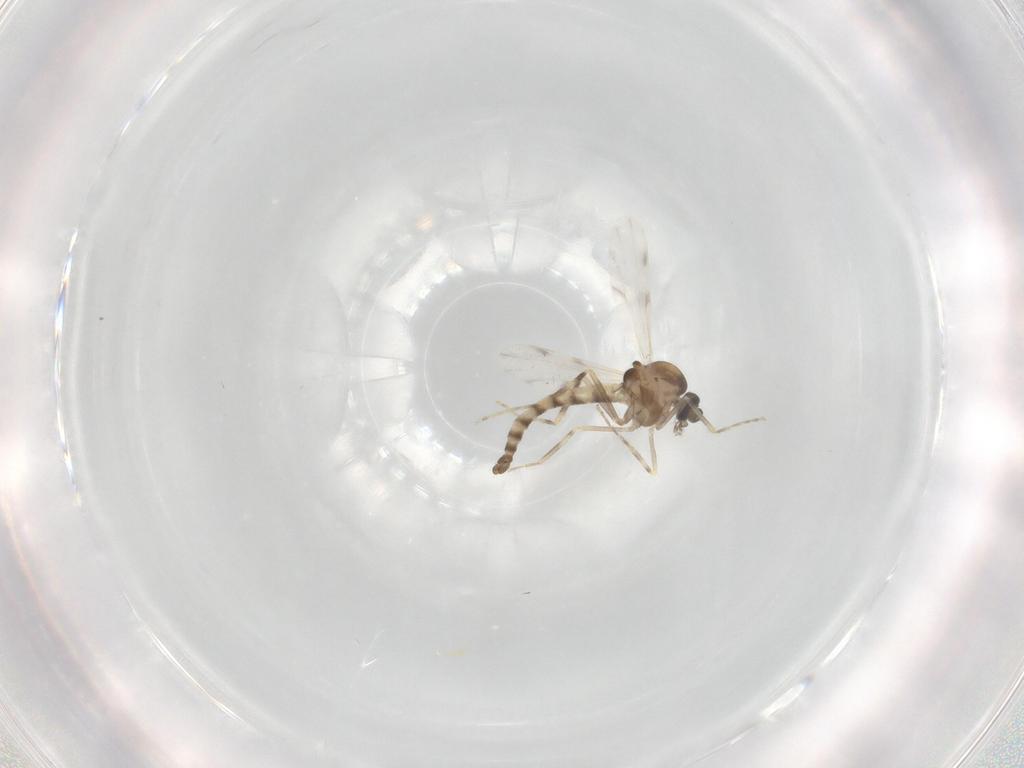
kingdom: Animalia
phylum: Arthropoda
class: Insecta
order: Diptera
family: Ceratopogonidae
